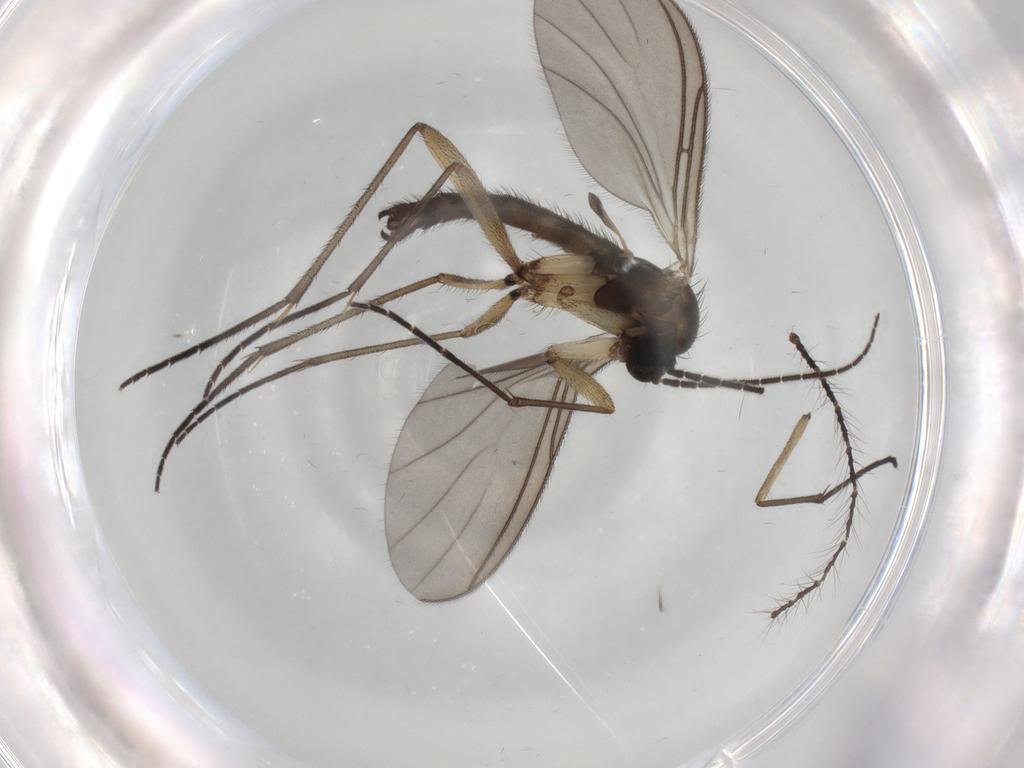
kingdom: Animalia
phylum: Arthropoda
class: Insecta
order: Diptera
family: Sciaridae
